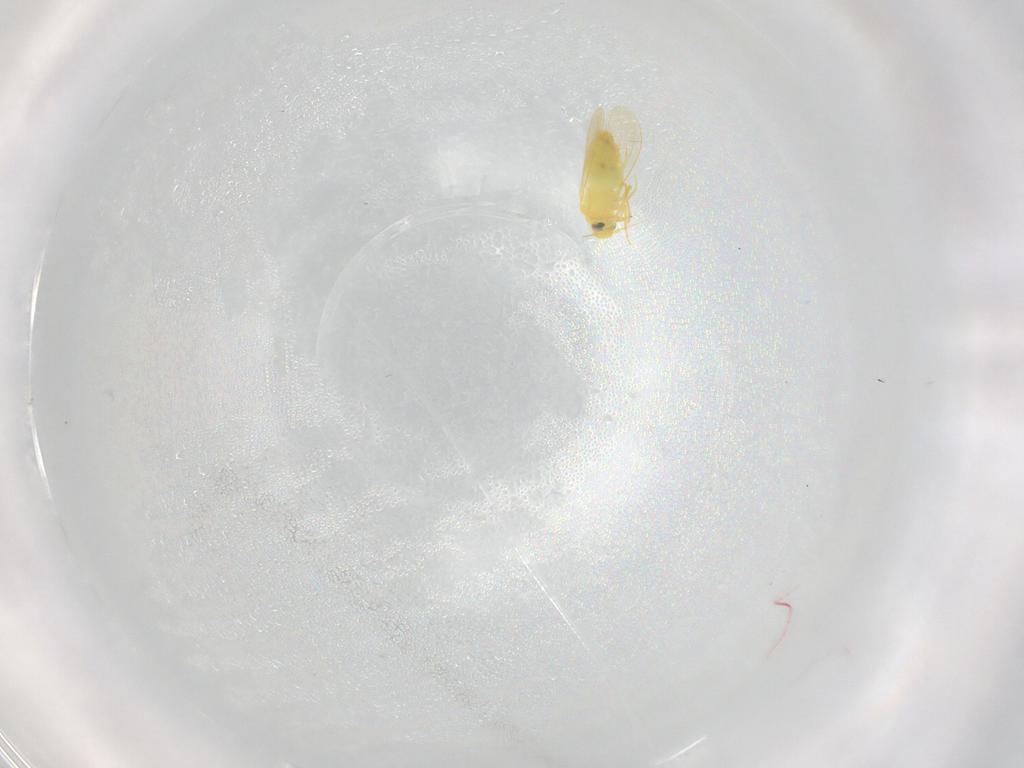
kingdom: Animalia
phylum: Arthropoda
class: Insecta
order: Hemiptera
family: Aleyrodidae
